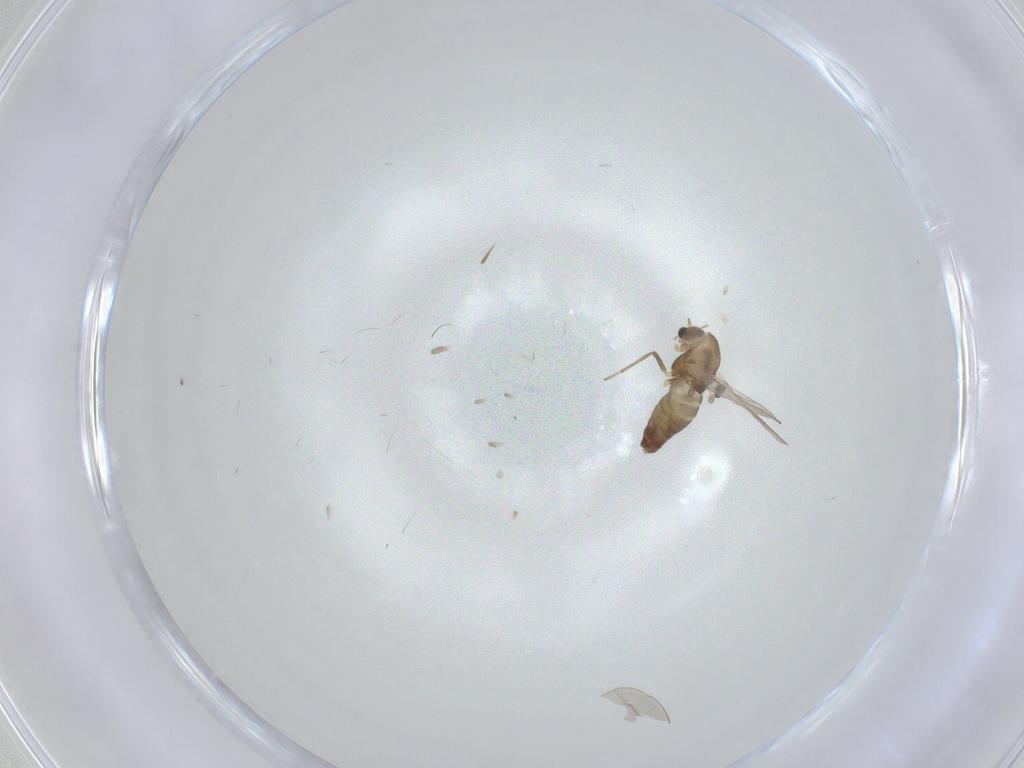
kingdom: Animalia
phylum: Arthropoda
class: Insecta
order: Diptera
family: Chironomidae
